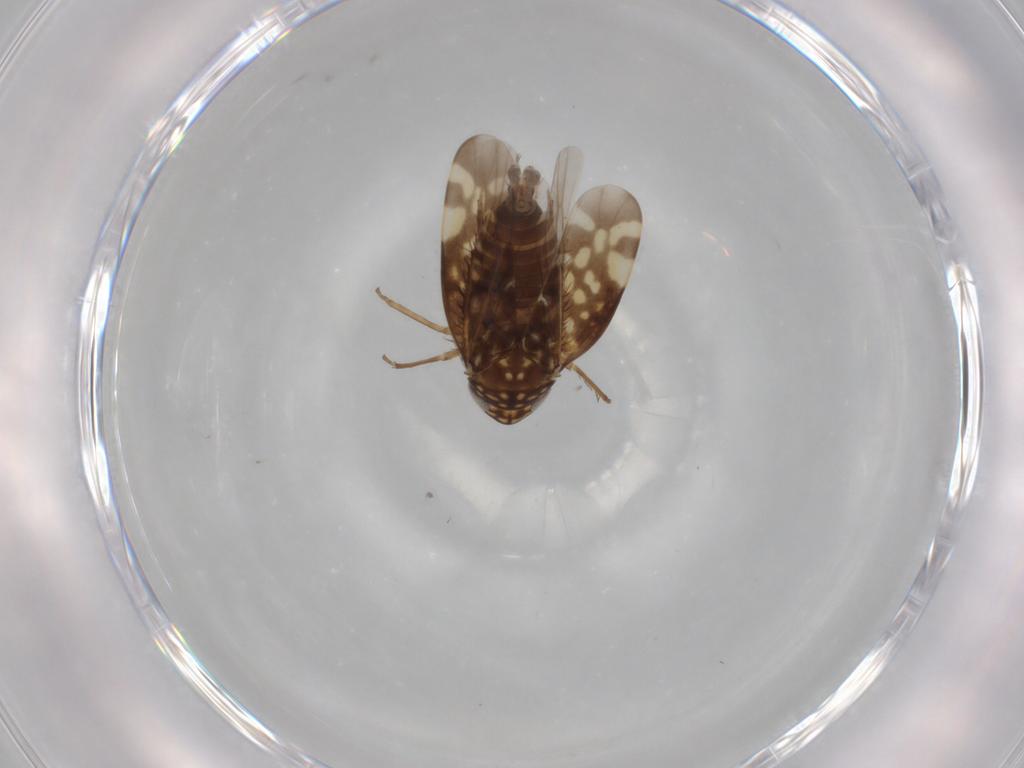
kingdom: Animalia
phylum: Arthropoda
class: Insecta
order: Hemiptera
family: Cicadellidae
